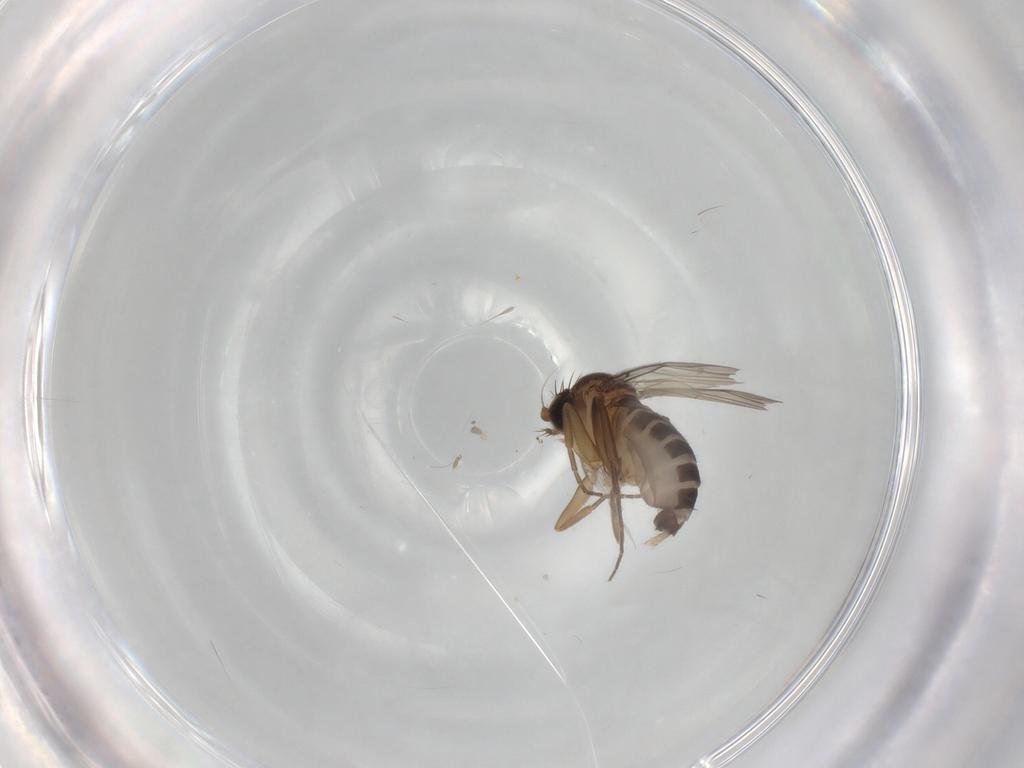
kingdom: Animalia
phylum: Arthropoda
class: Insecta
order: Diptera
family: Phoridae
